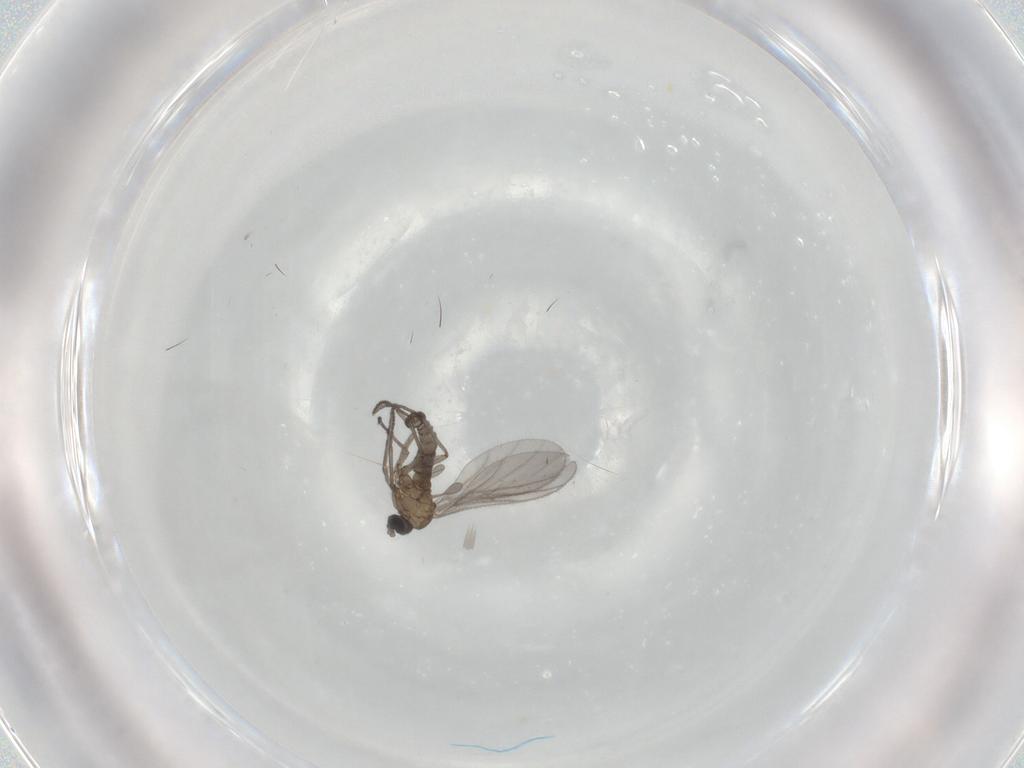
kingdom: Animalia
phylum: Arthropoda
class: Insecta
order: Diptera
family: Sciaridae
